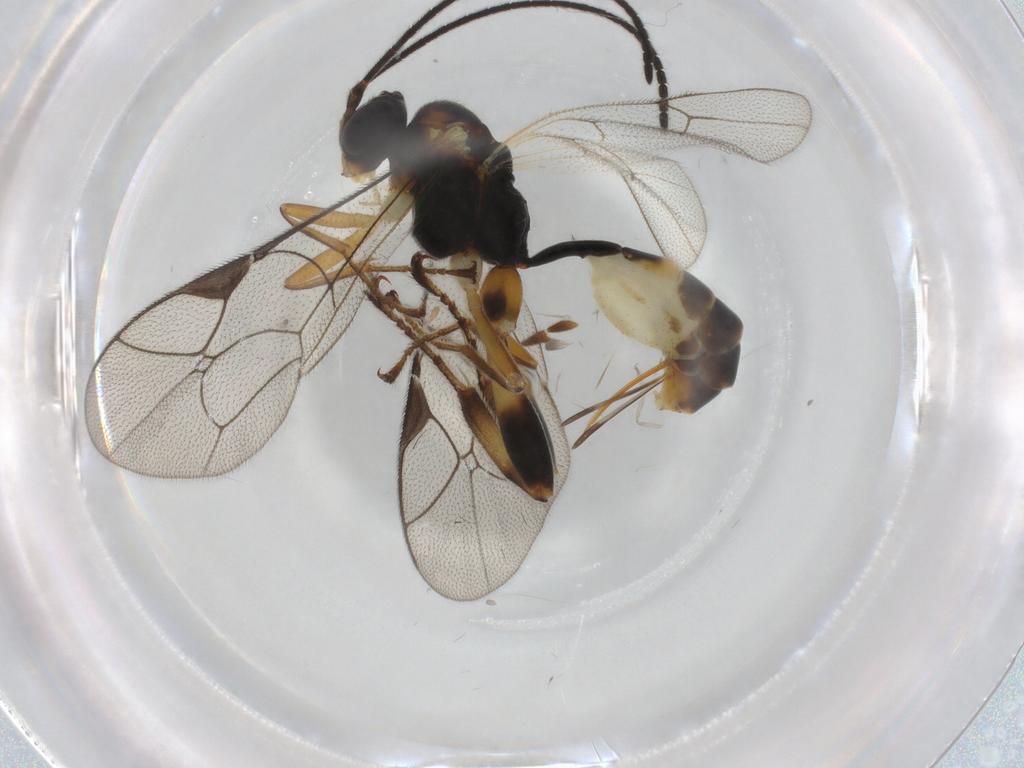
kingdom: Animalia
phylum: Arthropoda
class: Insecta
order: Hymenoptera
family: Ichneumonidae
